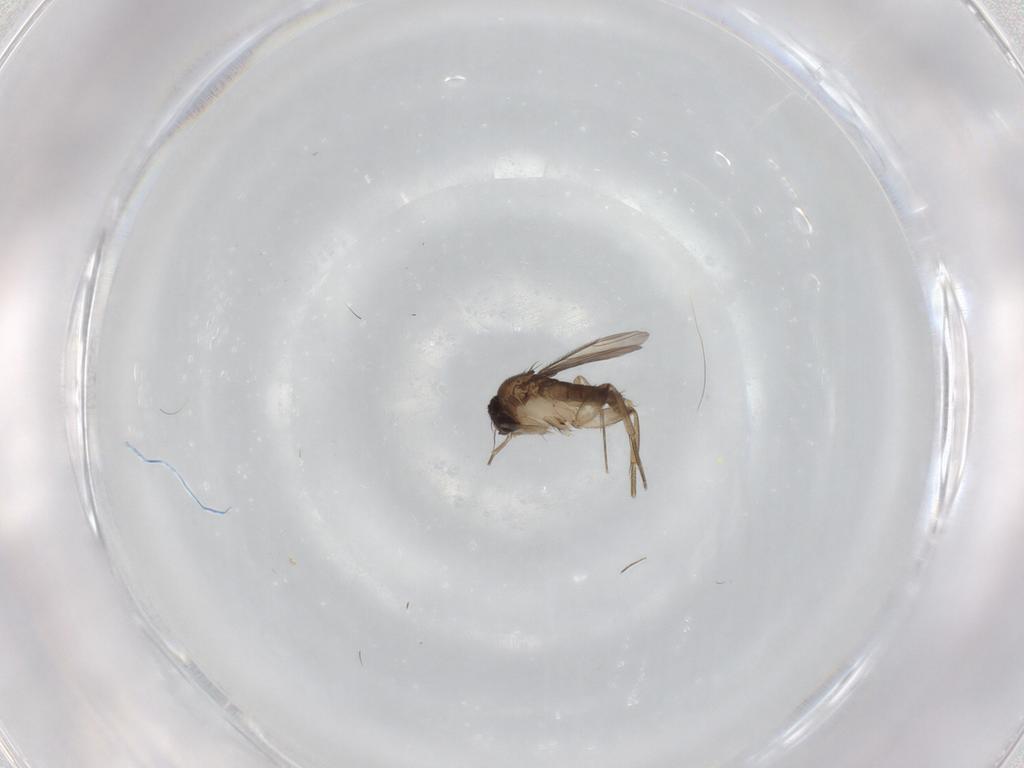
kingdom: Animalia
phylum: Arthropoda
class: Insecta
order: Diptera
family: Phoridae
